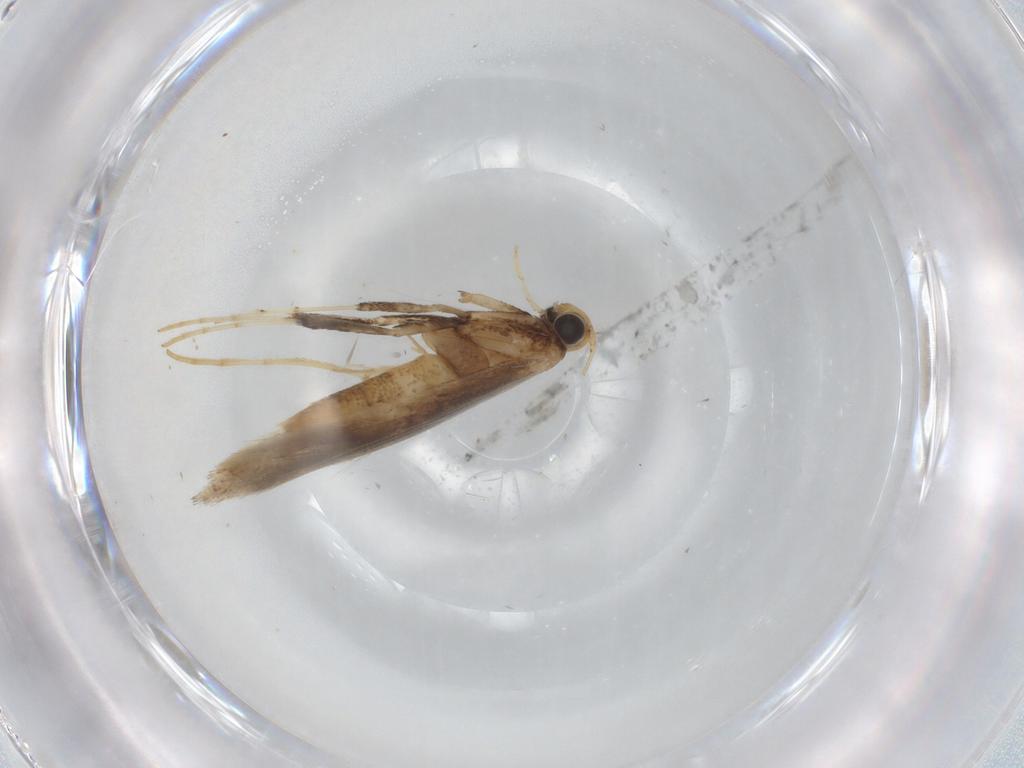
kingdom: Animalia
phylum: Arthropoda
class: Insecta
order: Lepidoptera
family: Gracillariidae
